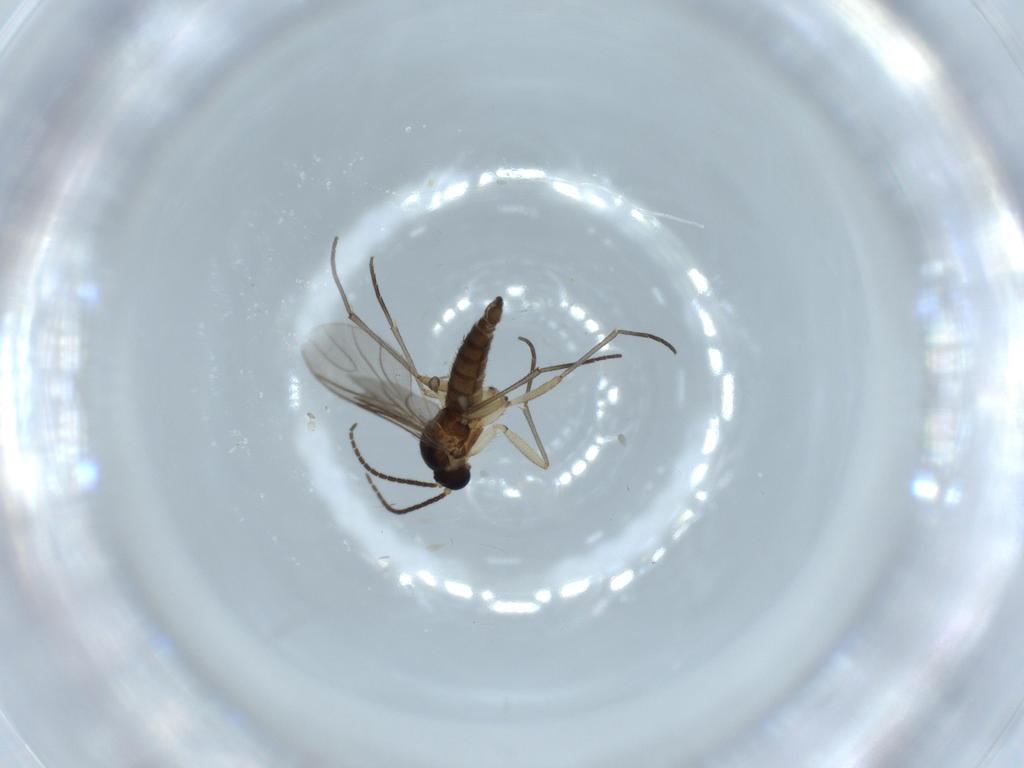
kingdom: Animalia
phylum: Arthropoda
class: Insecta
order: Diptera
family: Sciaridae
